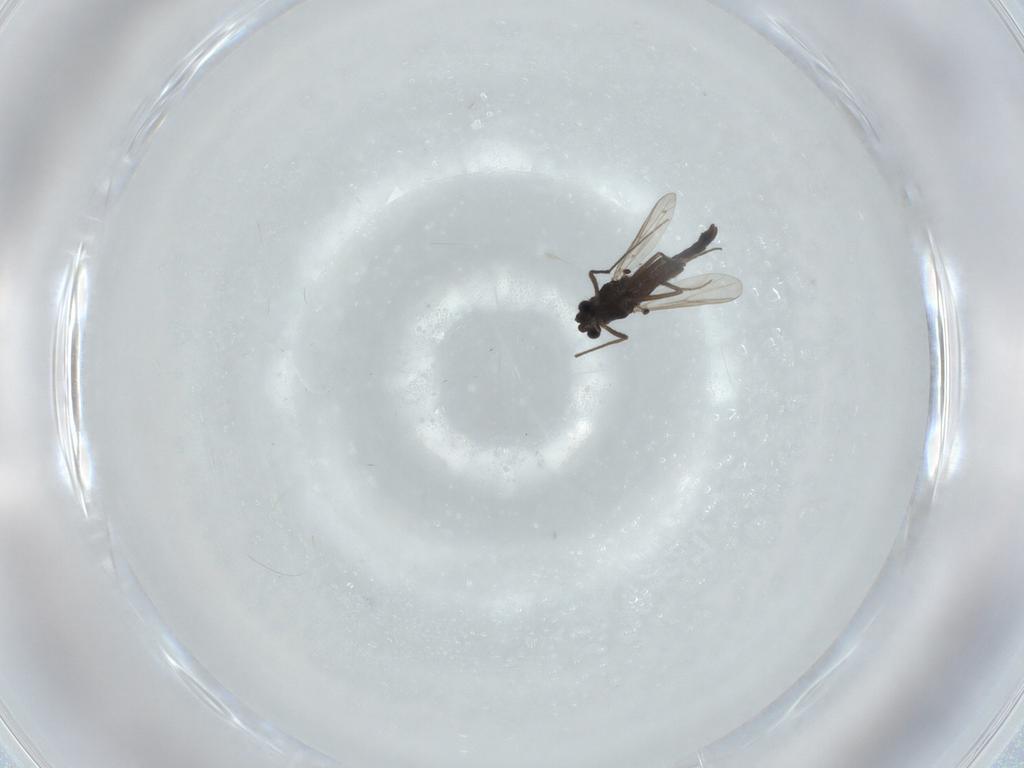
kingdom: Animalia
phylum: Arthropoda
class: Insecta
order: Diptera
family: Chironomidae
